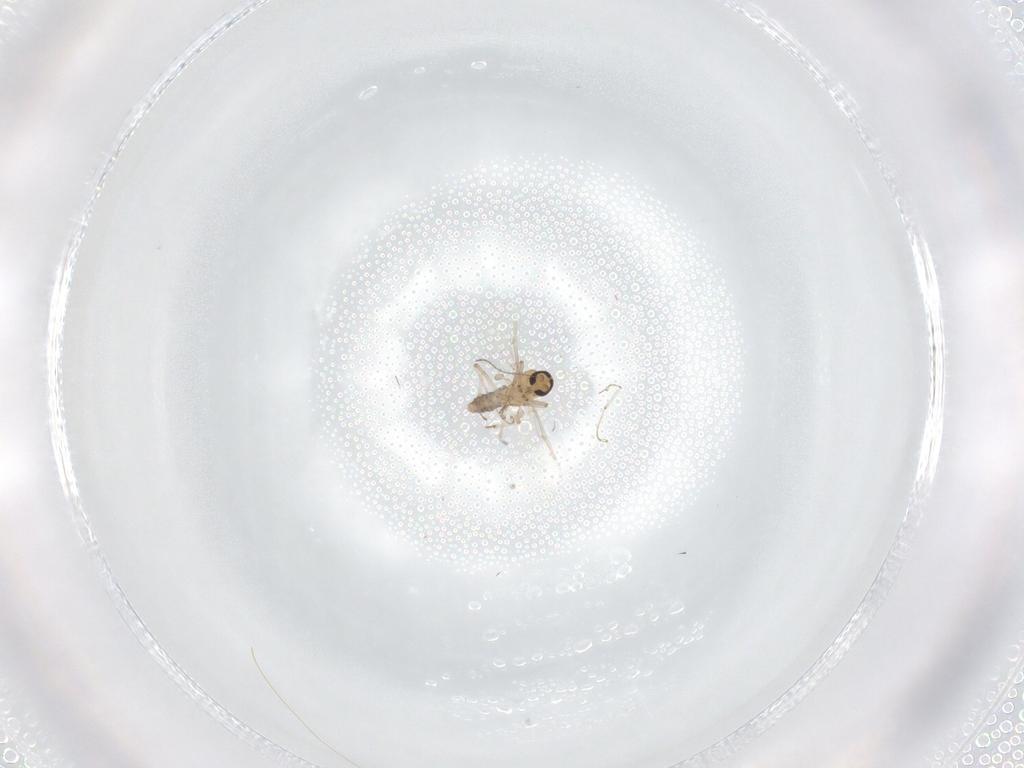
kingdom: Animalia
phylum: Arthropoda
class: Insecta
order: Diptera
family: Ceratopogonidae
